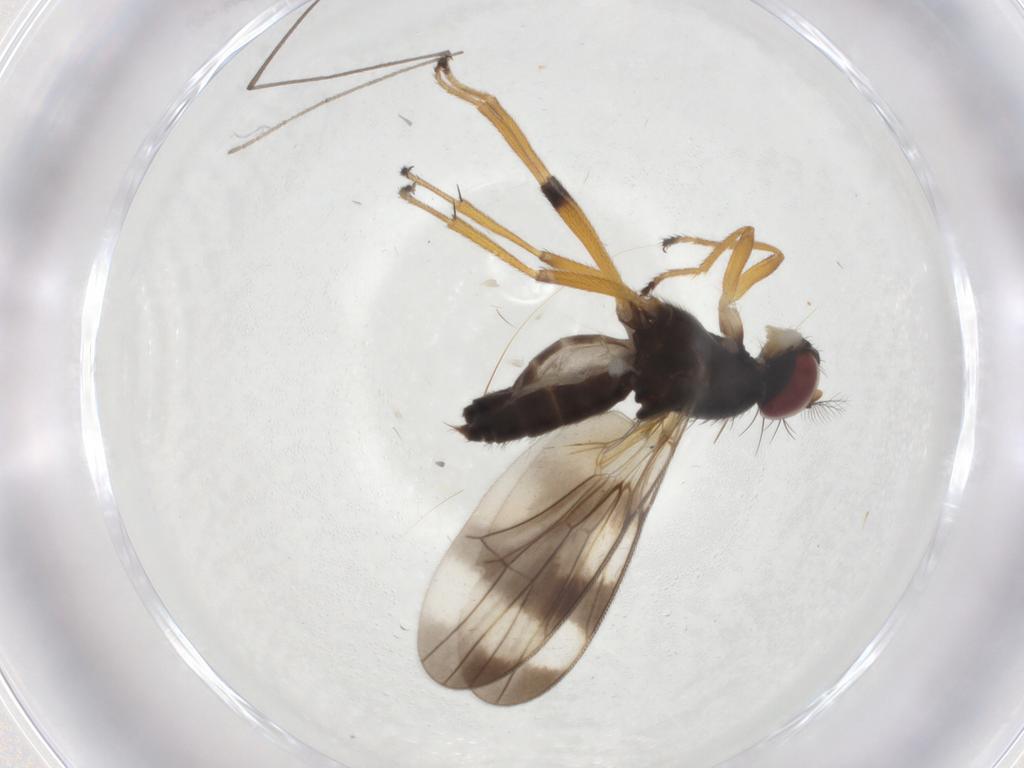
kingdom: Animalia
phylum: Arthropoda
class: Insecta
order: Diptera
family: Periscelididae
